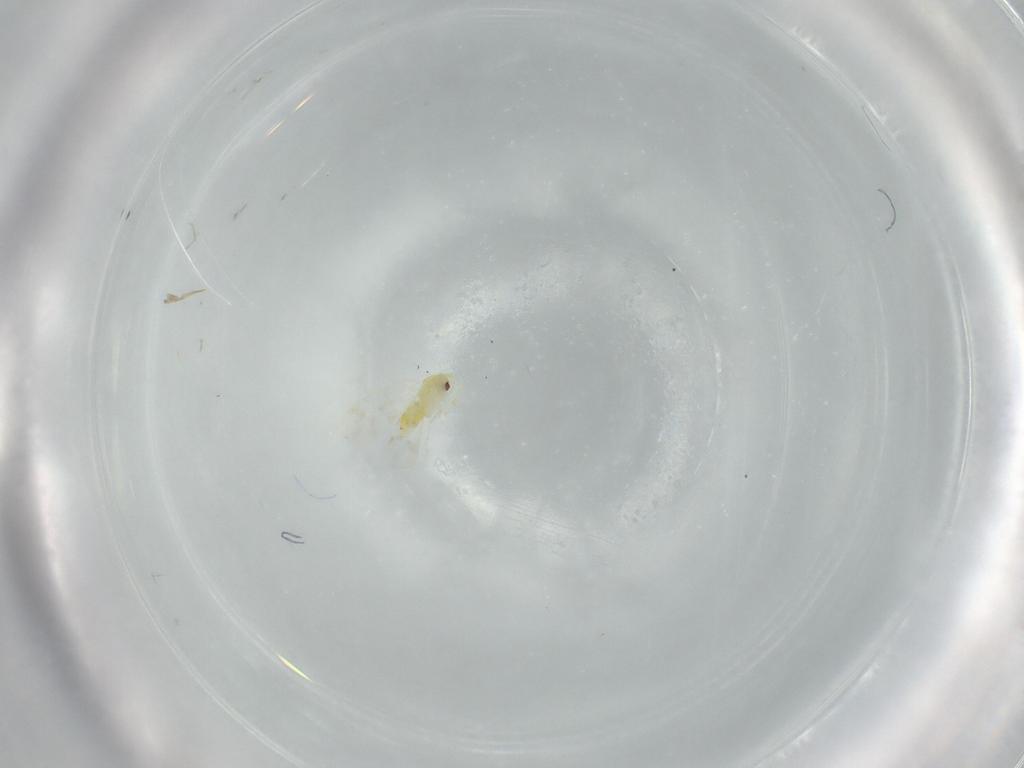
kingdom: Animalia
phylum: Arthropoda
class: Insecta
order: Hemiptera
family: Aleyrodidae
